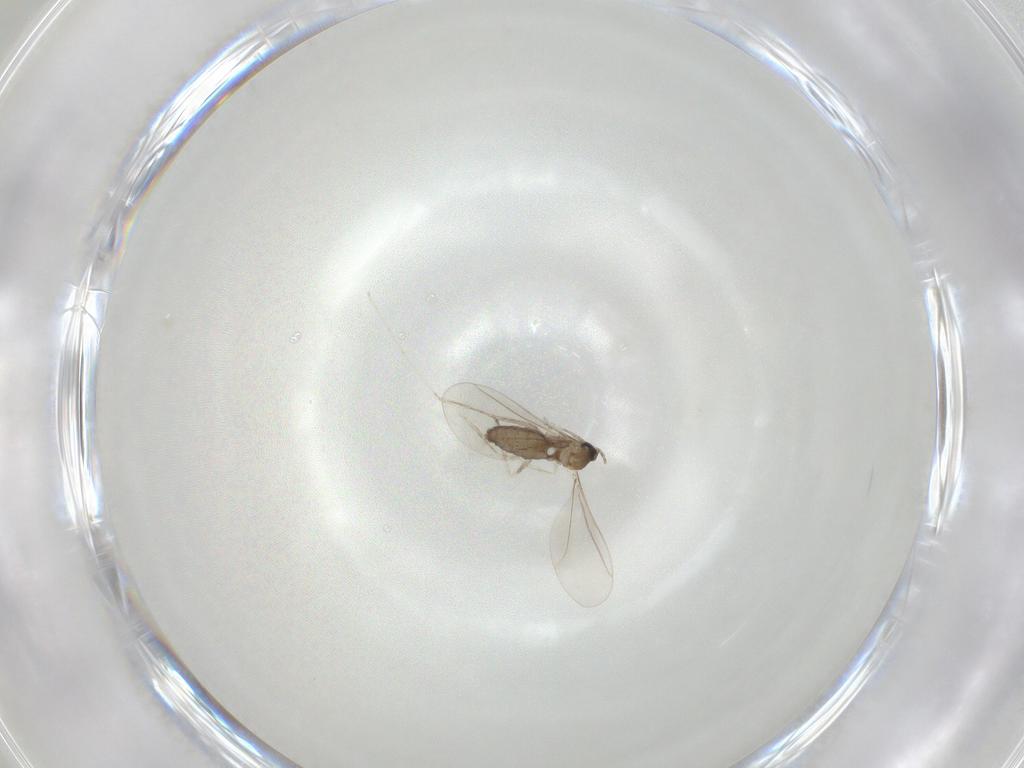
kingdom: Animalia
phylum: Arthropoda
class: Insecta
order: Diptera
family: Cecidomyiidae
